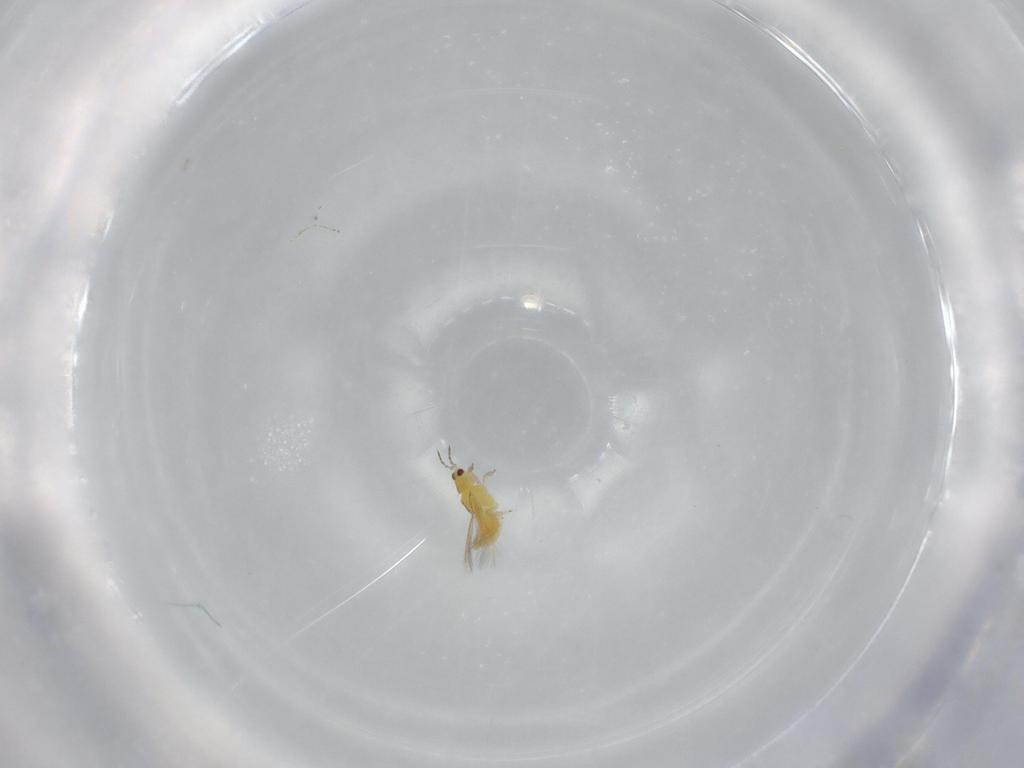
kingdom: Animalia
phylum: Arthropoda
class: Insecta
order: Thysanoptera
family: Thripidae
